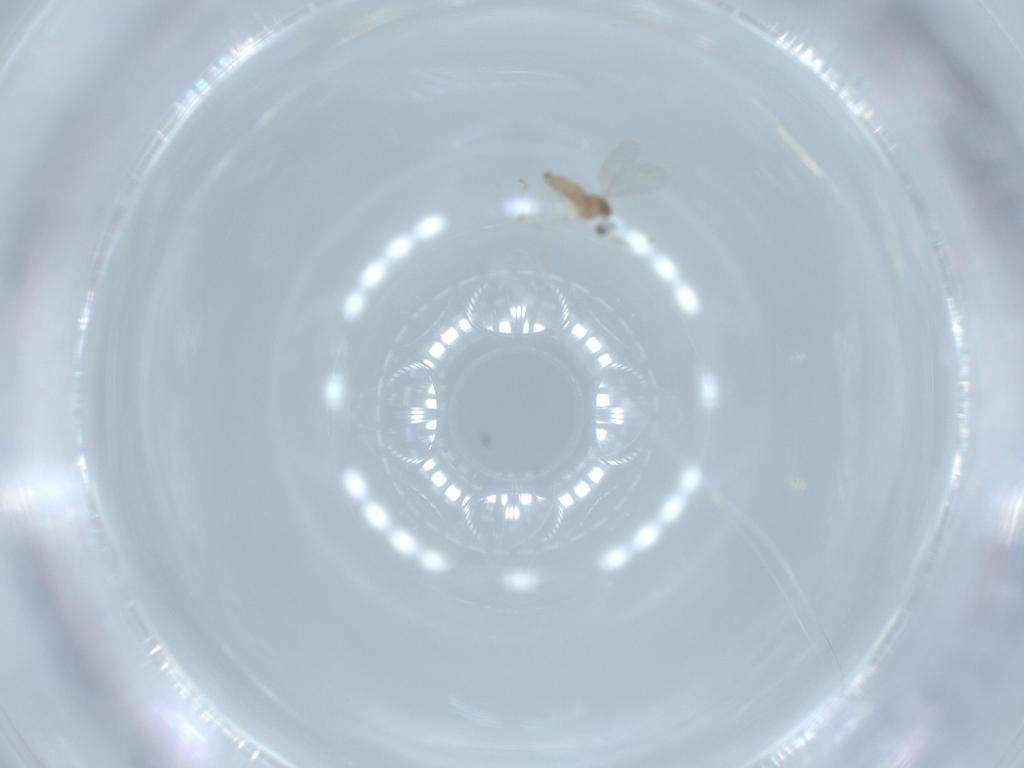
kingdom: Animalia
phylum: Arthropoda
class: Insecta
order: Diptera
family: Cecidomyiidae
